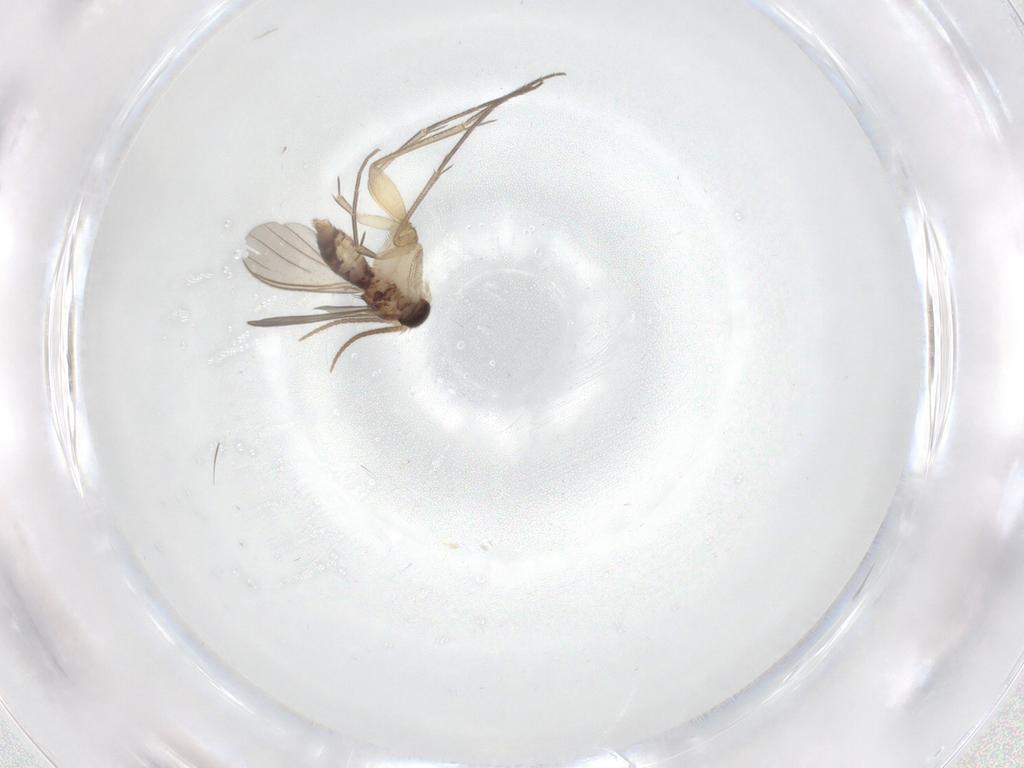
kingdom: Animalia
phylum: Arthropoda
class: Insecta
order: Diptera
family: Mycetophilidae
